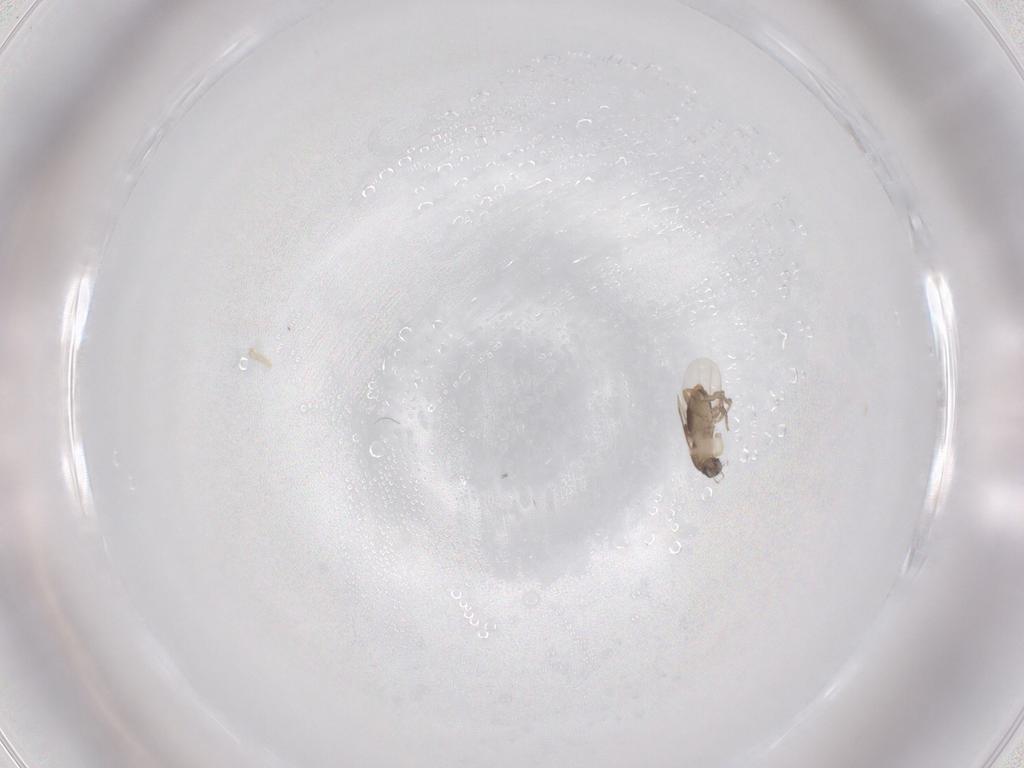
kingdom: Animalia
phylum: Arthropoda
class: Insecta
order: Diptera
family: Phoridae
